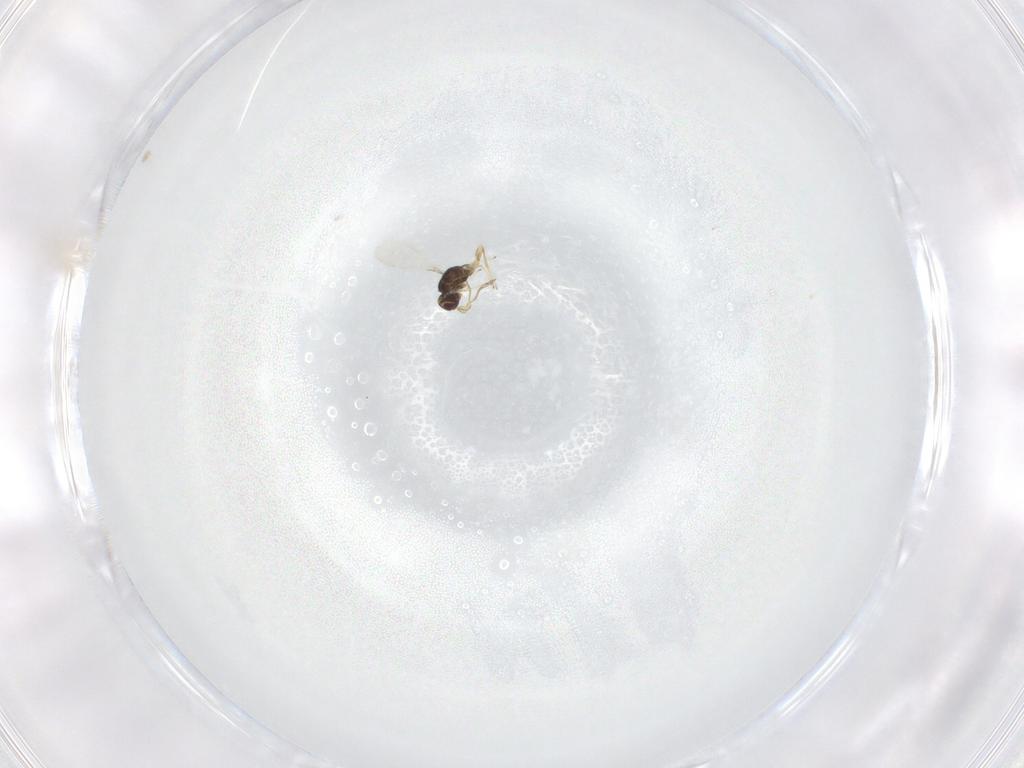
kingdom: Animalia
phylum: Arthropoda
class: Insecta
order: Hymenoptera
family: Mymaridae
